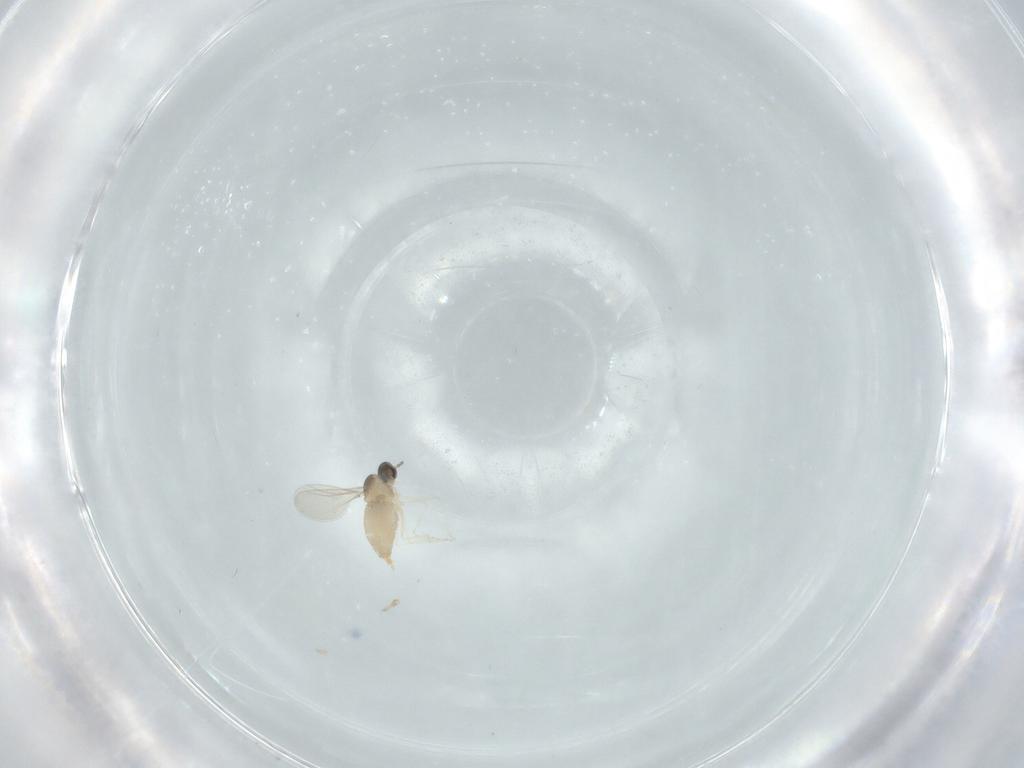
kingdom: Animalia
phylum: Arthropoda
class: Insecta
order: Diptera
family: Cecidomyiidae
